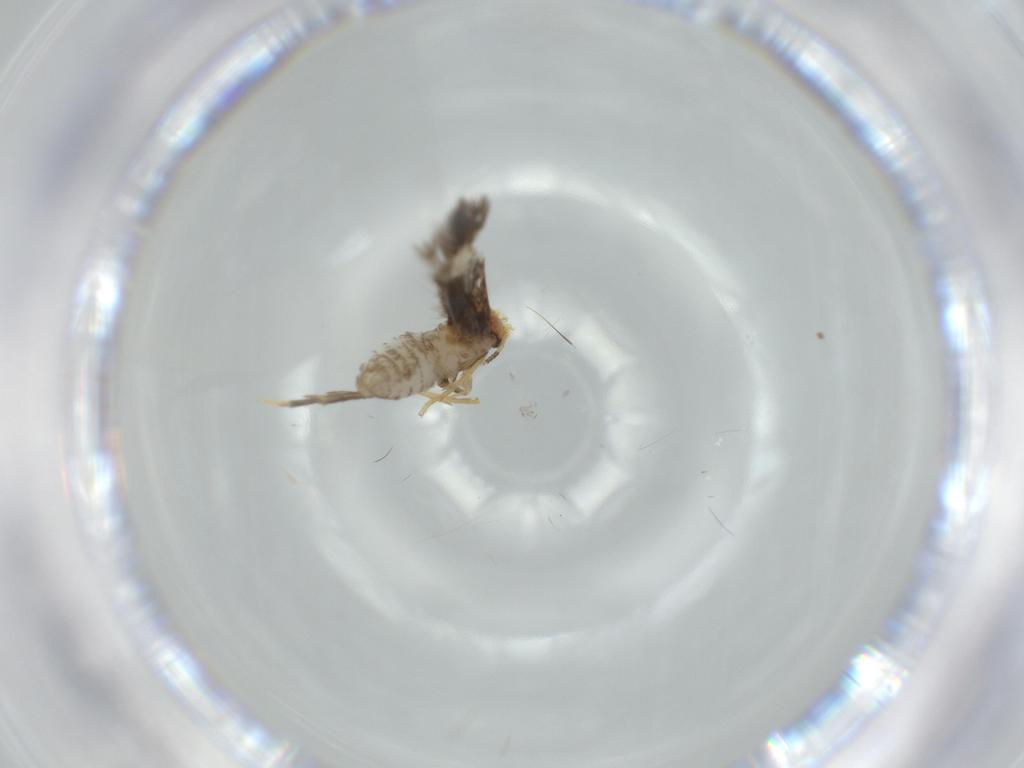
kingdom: Animalia
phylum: Arthropoda
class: Insecta
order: Lepidoptera
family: Nepticulidae
